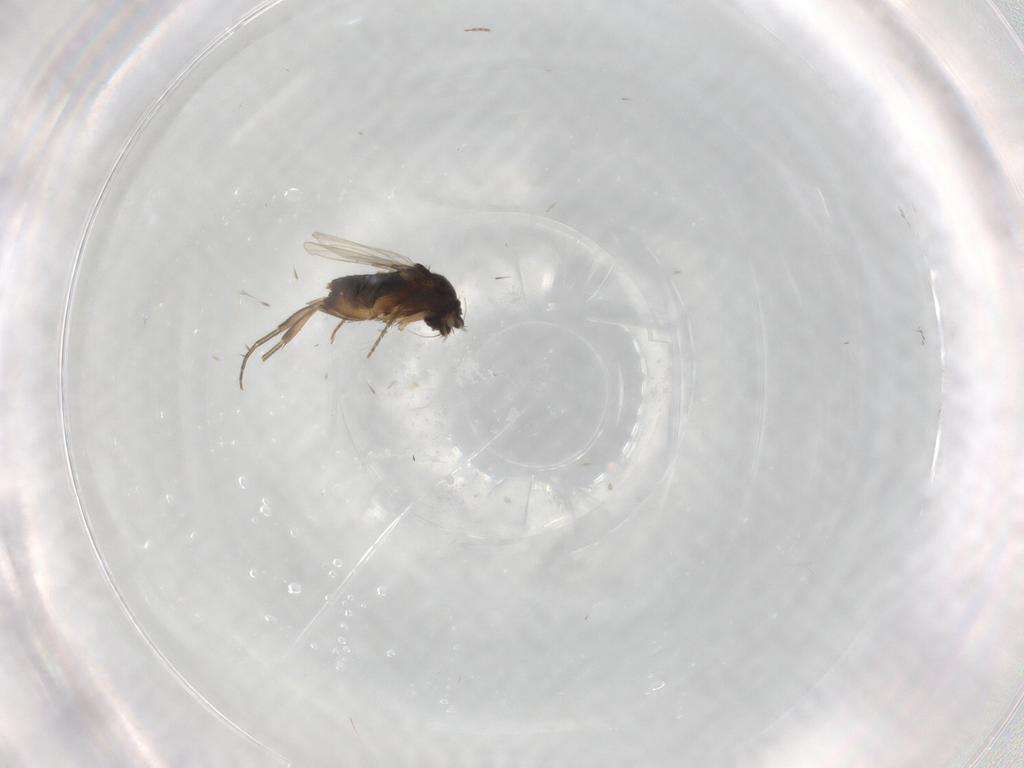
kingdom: Animalia
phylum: Arthropoda
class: Insecta
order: Diptera
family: Phoridae
